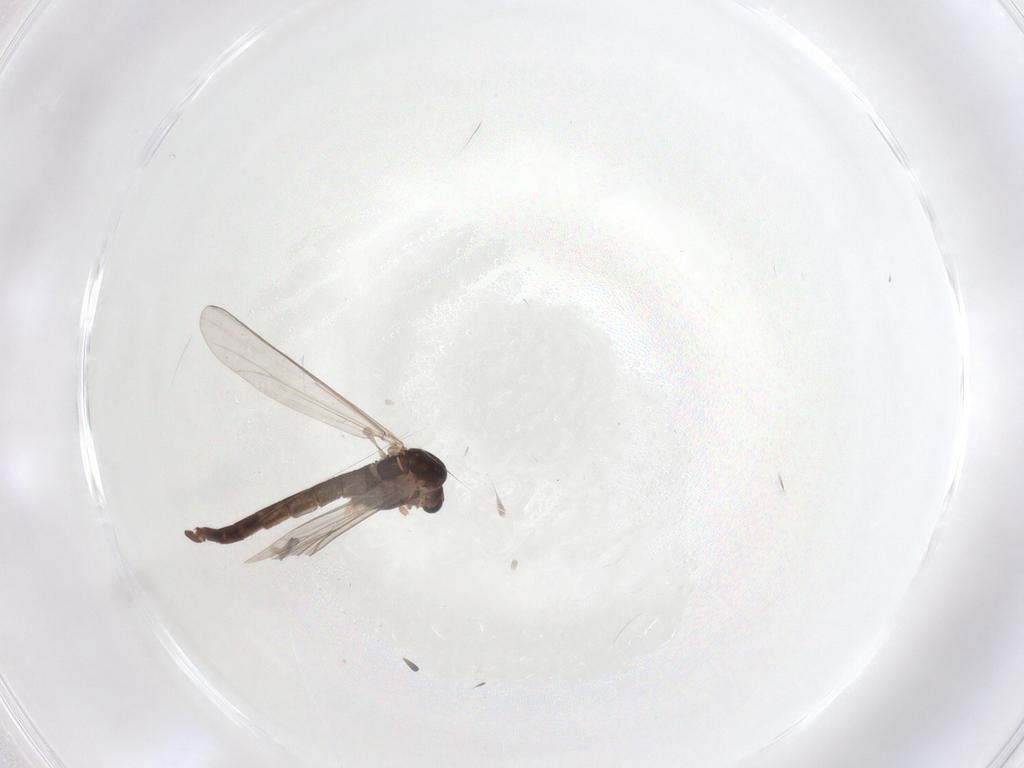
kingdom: Animalia
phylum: Arthropoda
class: Insecta
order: Diptera
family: Chironomidae
